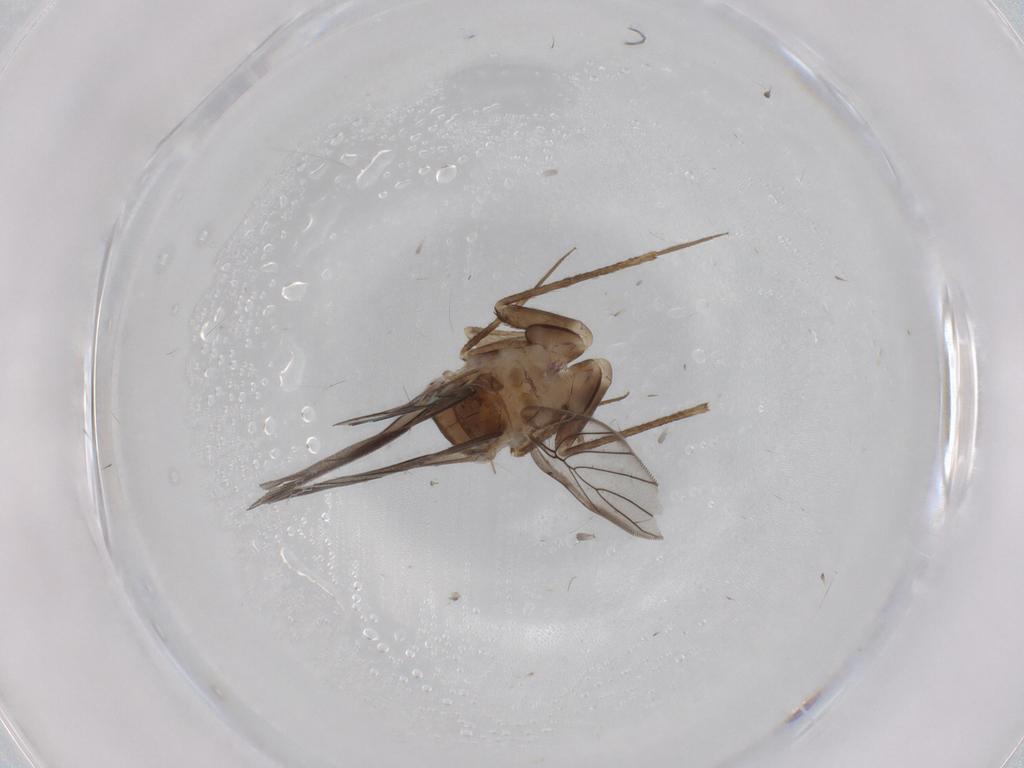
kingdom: Animalia
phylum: Arthropoda
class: Insecta
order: Psocodea
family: Lepidopsocidae
